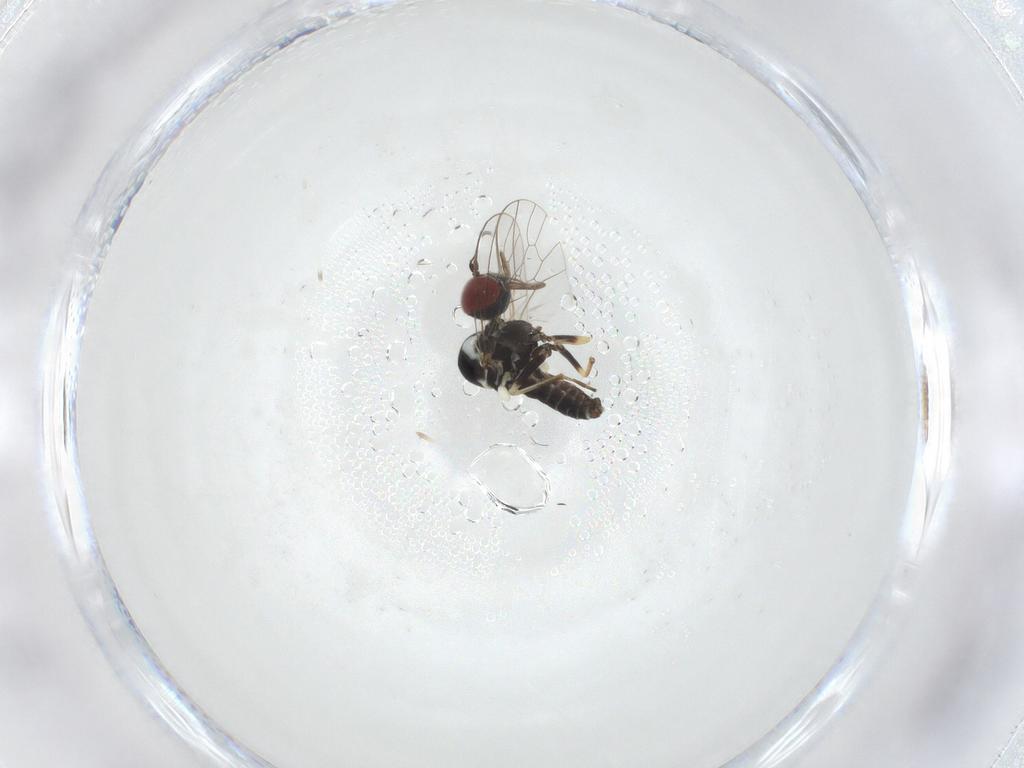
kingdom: Animalia
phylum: Arthropoda
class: Insecta
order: Diptera
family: Mythicomyiidae
